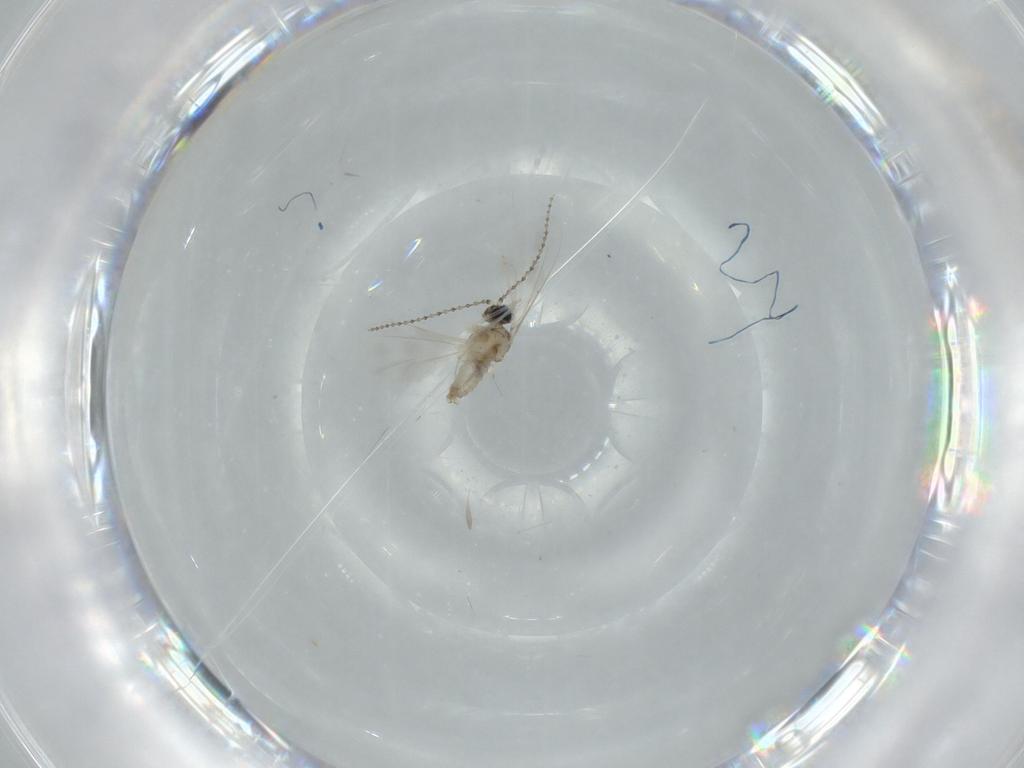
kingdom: Animalia
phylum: Arthropoda
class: Insecta
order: Diptera
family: Cecidomyiidae
